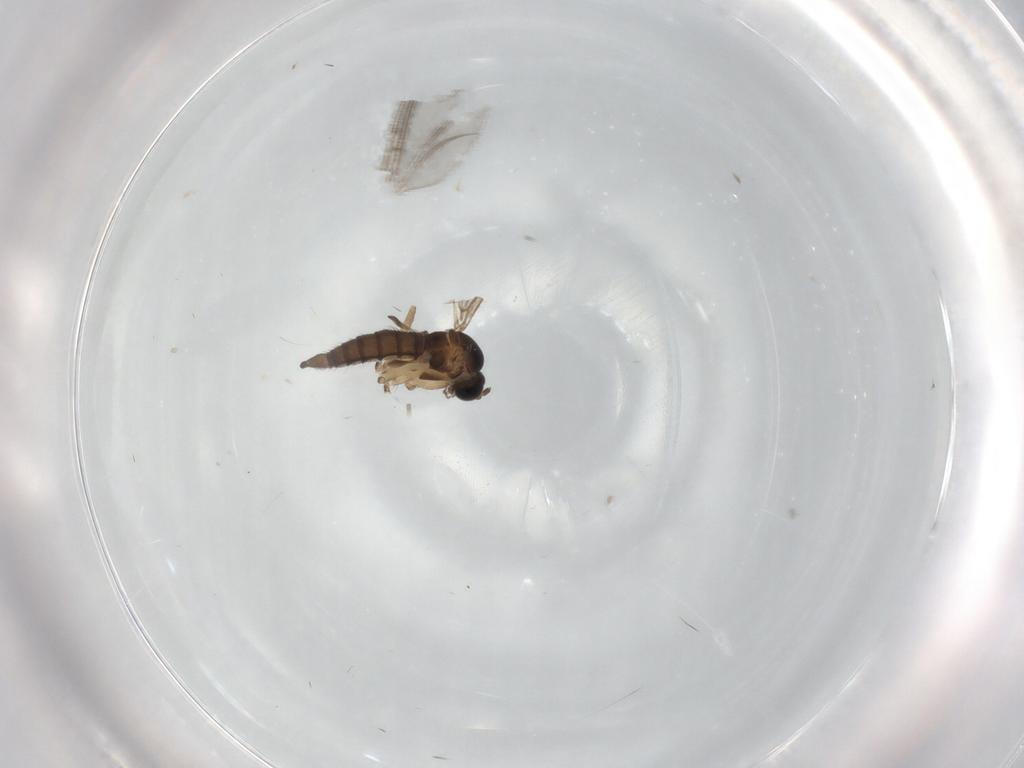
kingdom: Animalia
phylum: Arthropoda
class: Insecta
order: Diptera
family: Sciaridae
